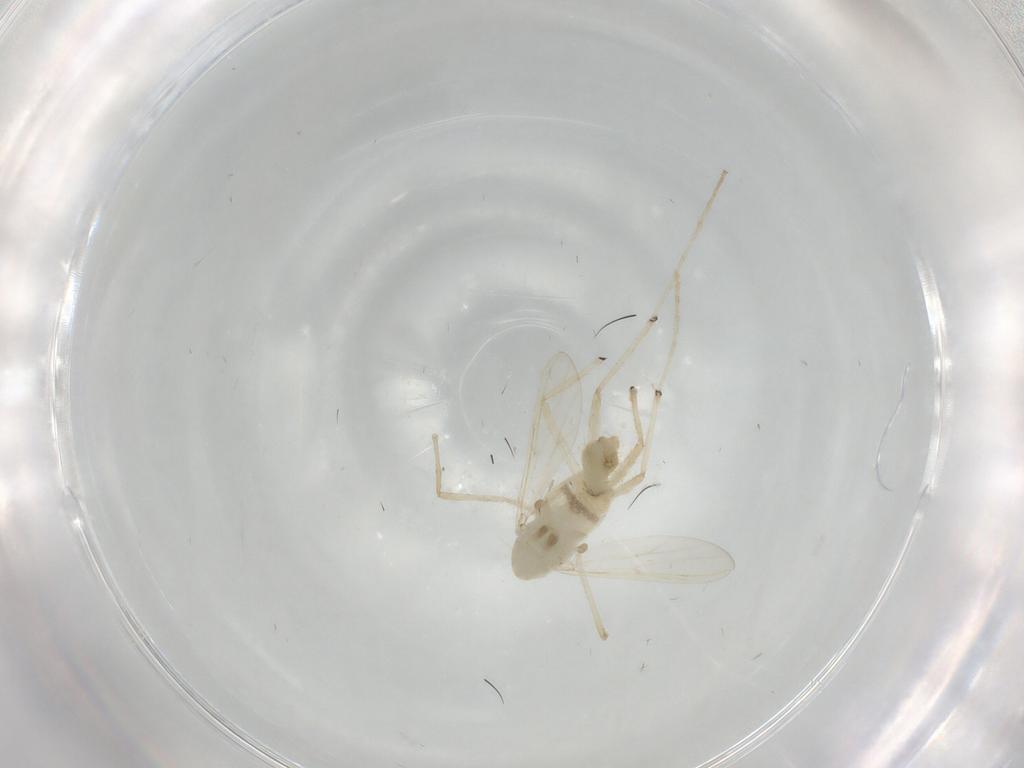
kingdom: Animalia
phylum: Arthropoda
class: Insecta
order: Diptera
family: Chironomidae
